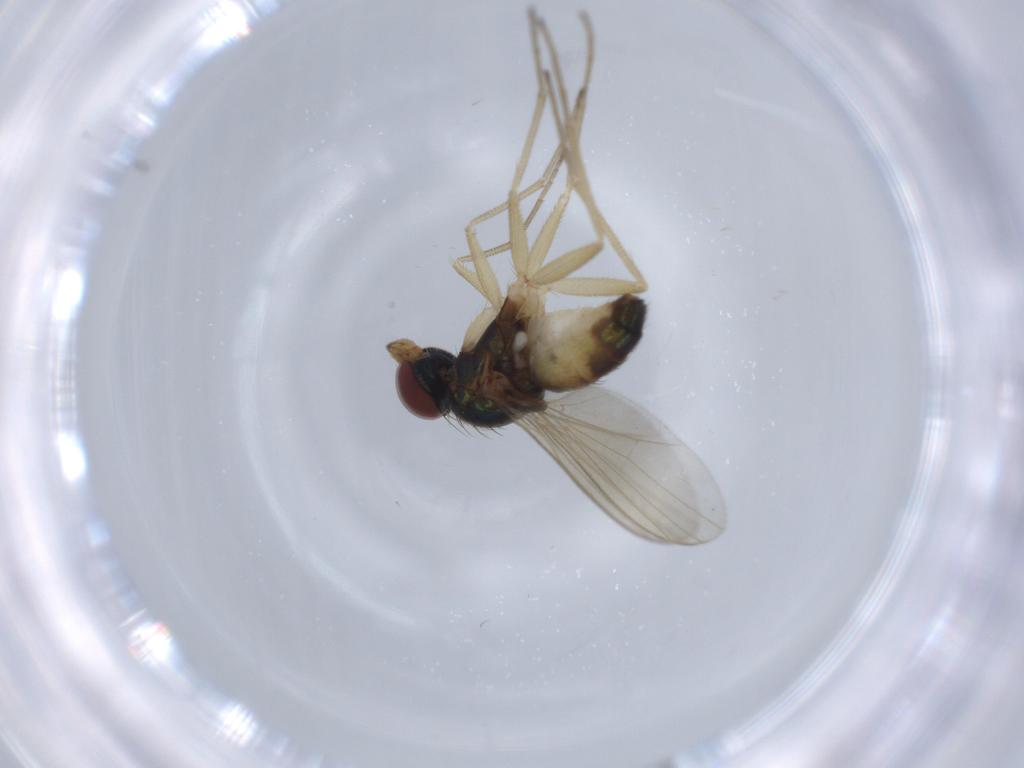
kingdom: Animalia
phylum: Arthropoda
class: Insecta
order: Diptera
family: Dolichopodidae
